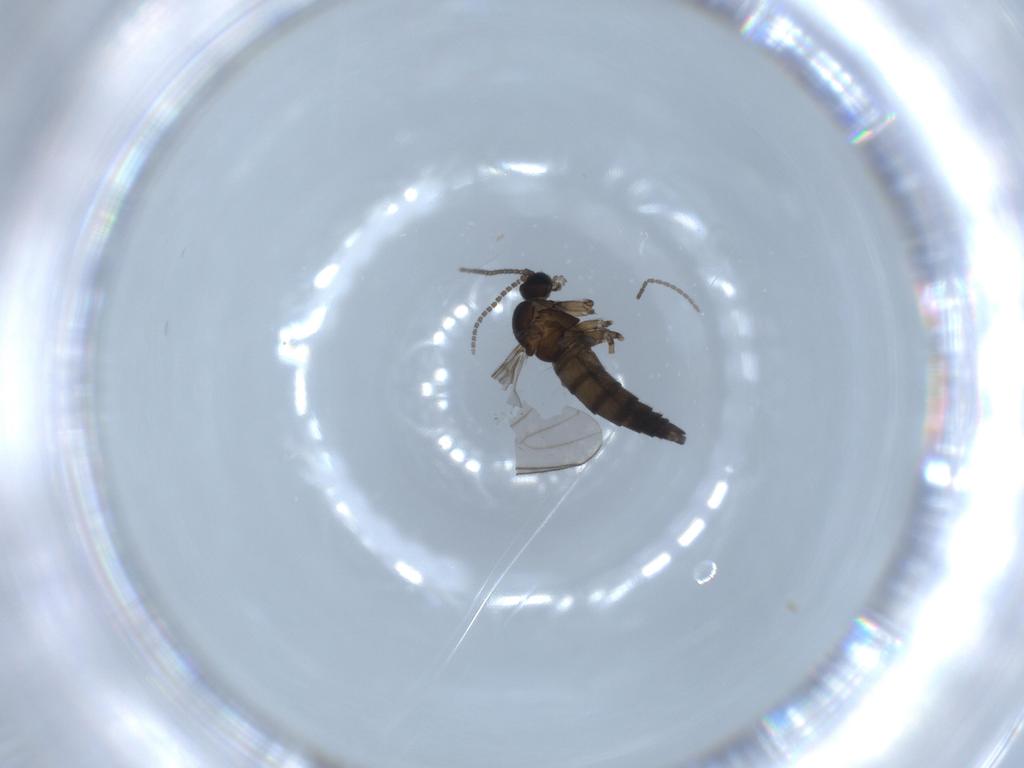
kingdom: Animalia
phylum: Arthropoda
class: Insecta
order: Diptera
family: Sciaridae
